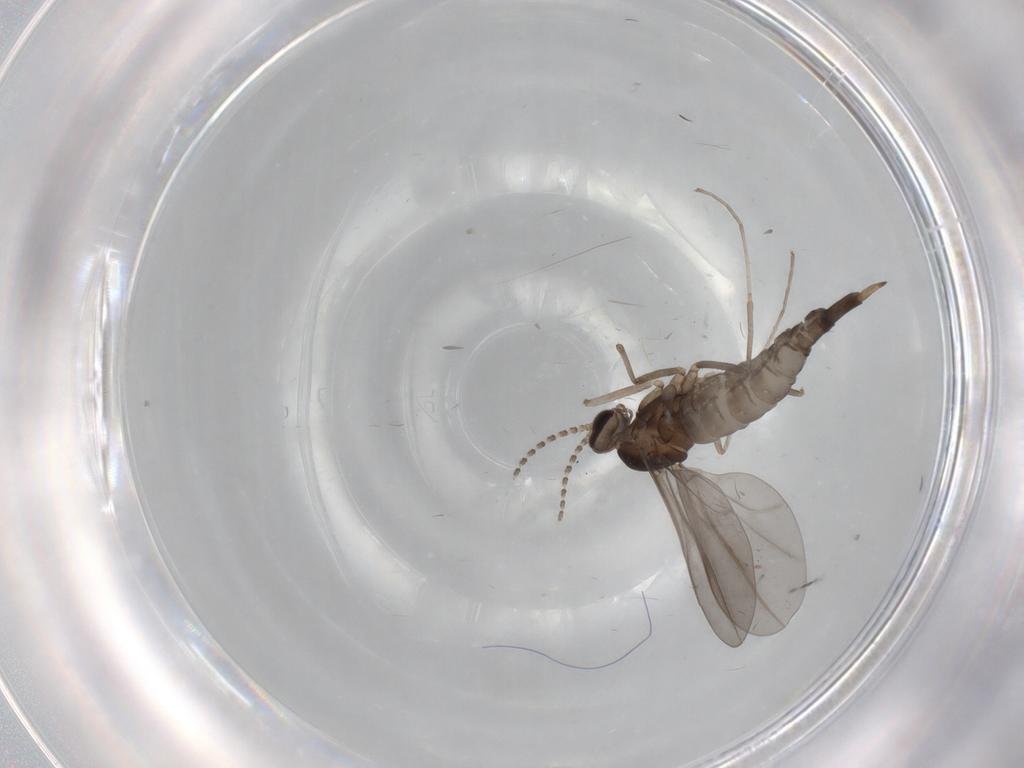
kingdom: Animalia
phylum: Arthropoda
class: Insecta
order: Diptera
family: Cecidomyiidae
